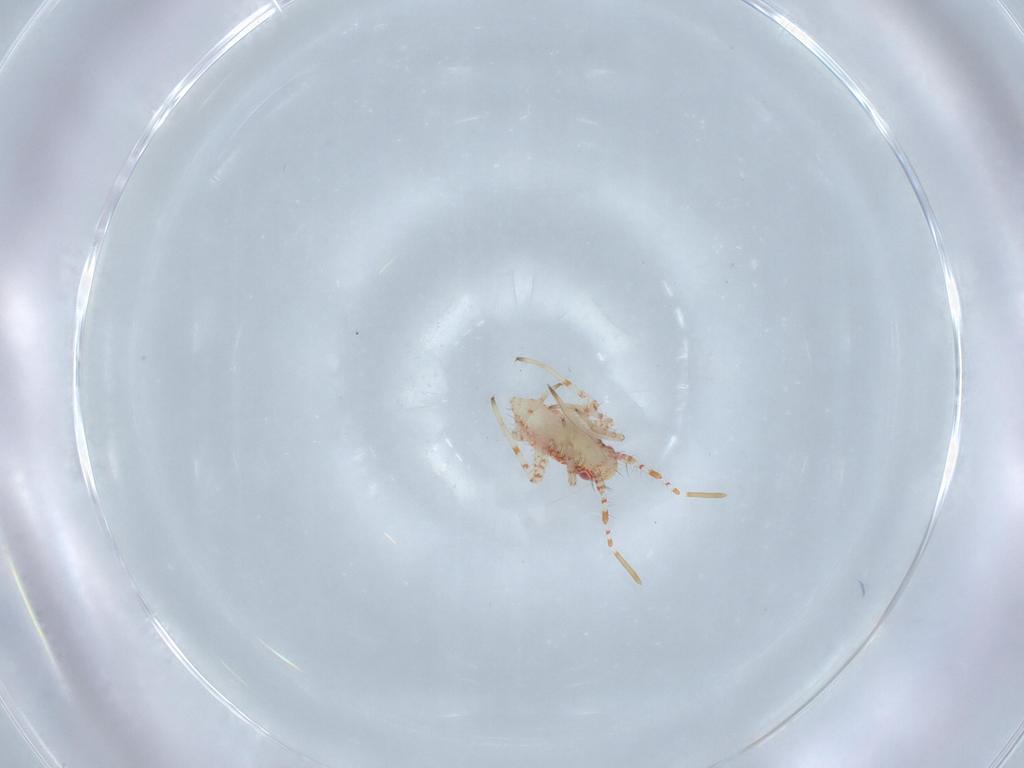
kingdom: Animalia
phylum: Arthropoda
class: Insecta
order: Hemiptera
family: Miridae
